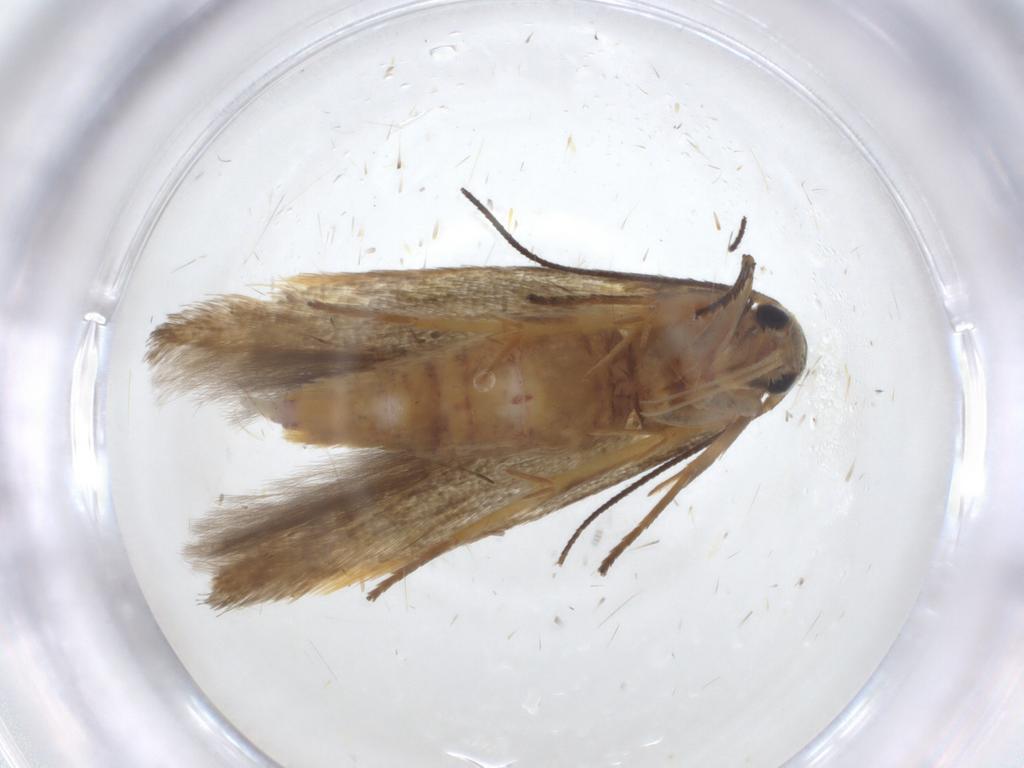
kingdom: Animalia
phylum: Arthropoda
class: Insecta
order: Lepidoptera
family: Stathmopodidae
